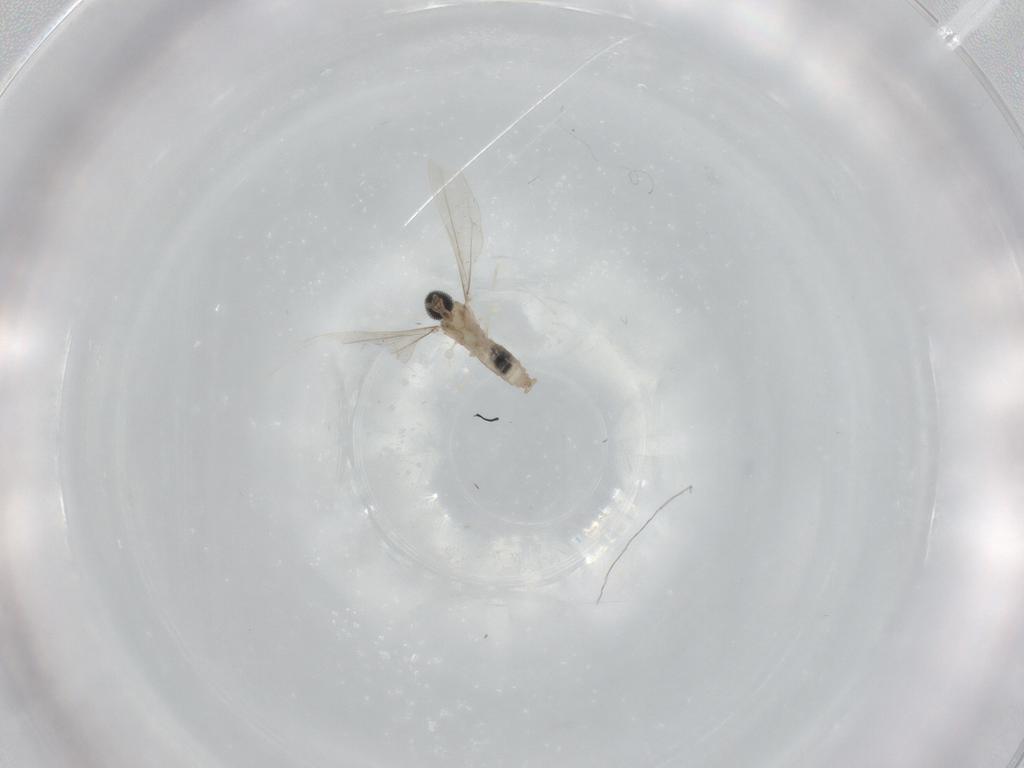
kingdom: Animalia
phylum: Arthropoda
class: Insecta
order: Diptera
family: Cecidomyiidae
